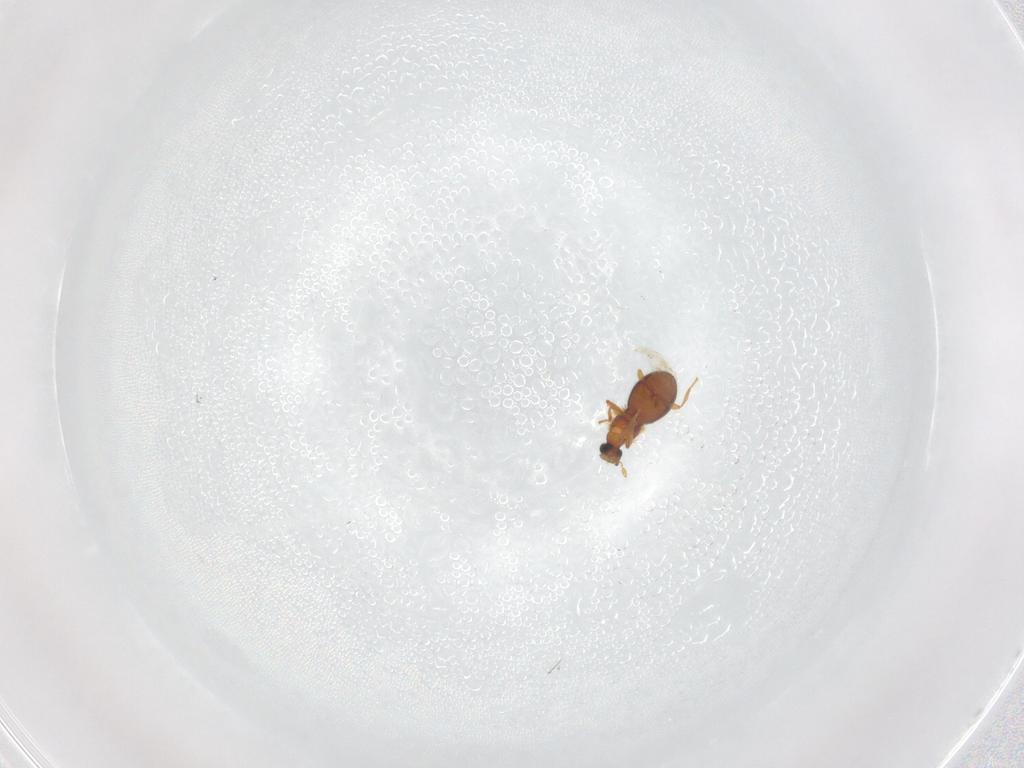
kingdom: Animalia
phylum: Arthropoda
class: Insecta
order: Coleoptera
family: Staphylinidae
